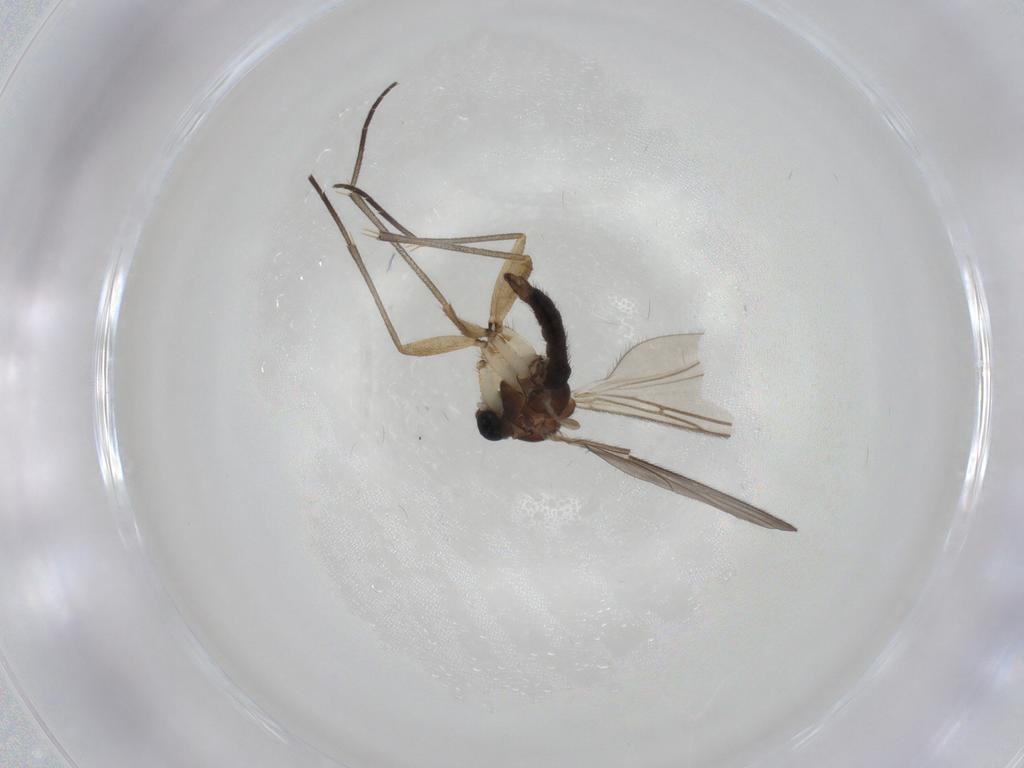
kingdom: Animalia
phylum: Arthropoda
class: Insecta
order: Diptera
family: Sciaridae
